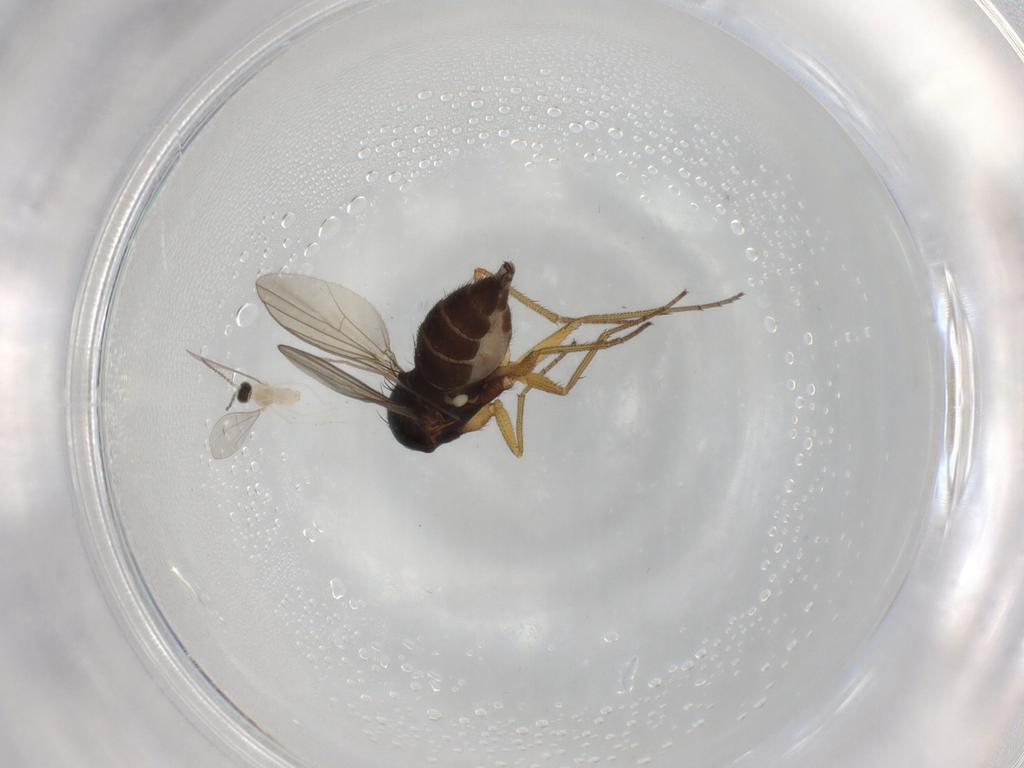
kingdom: Animalia
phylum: Arthropoda
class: Insecta
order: Diptera
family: Dolichopodidae
